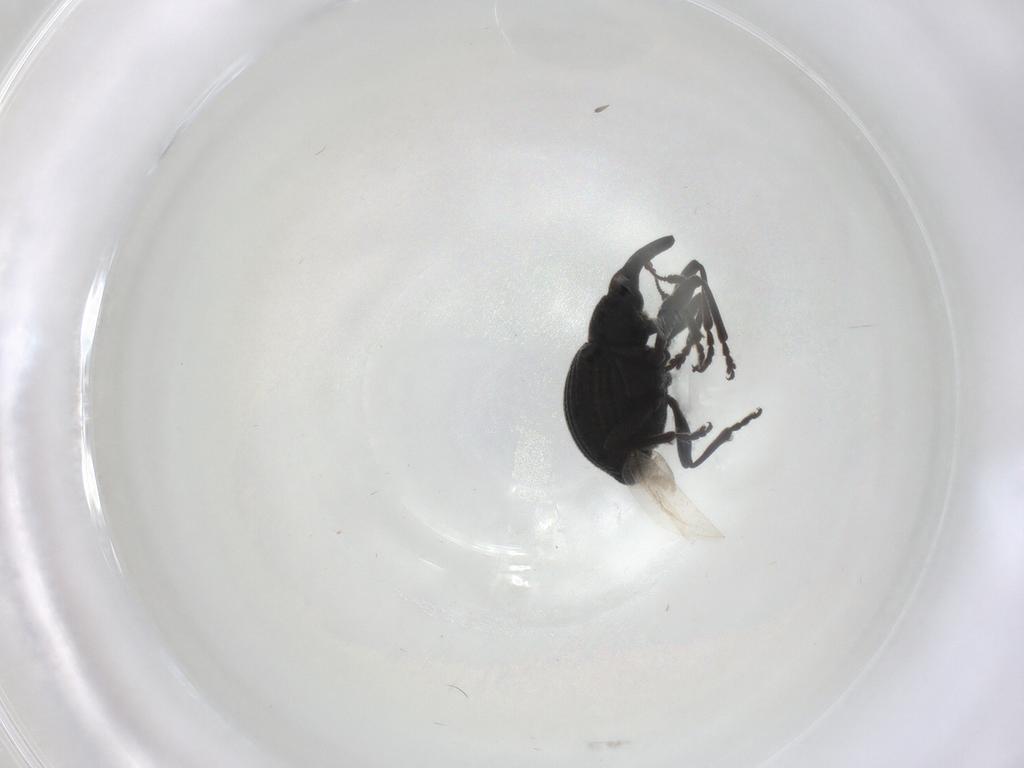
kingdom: Animalia
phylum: Arthropoda
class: Insecta
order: Coleoptera
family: Brentidae
